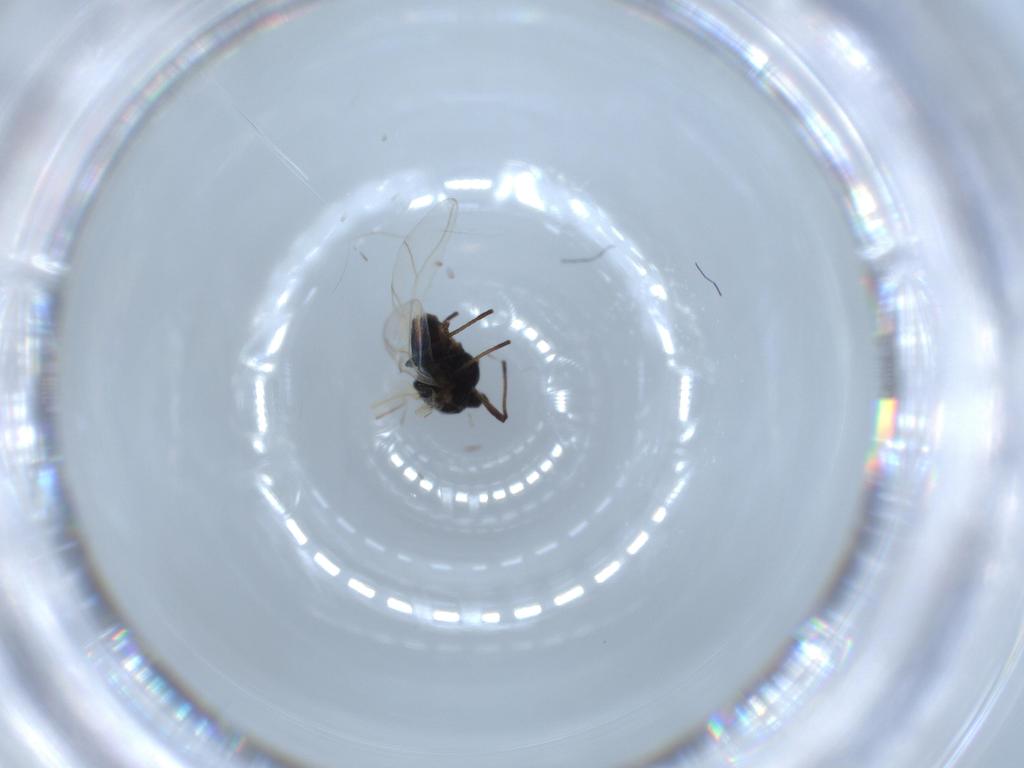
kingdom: Animalia
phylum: Arthropoda
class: Insecta
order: Hemiptera
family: Aphididae
